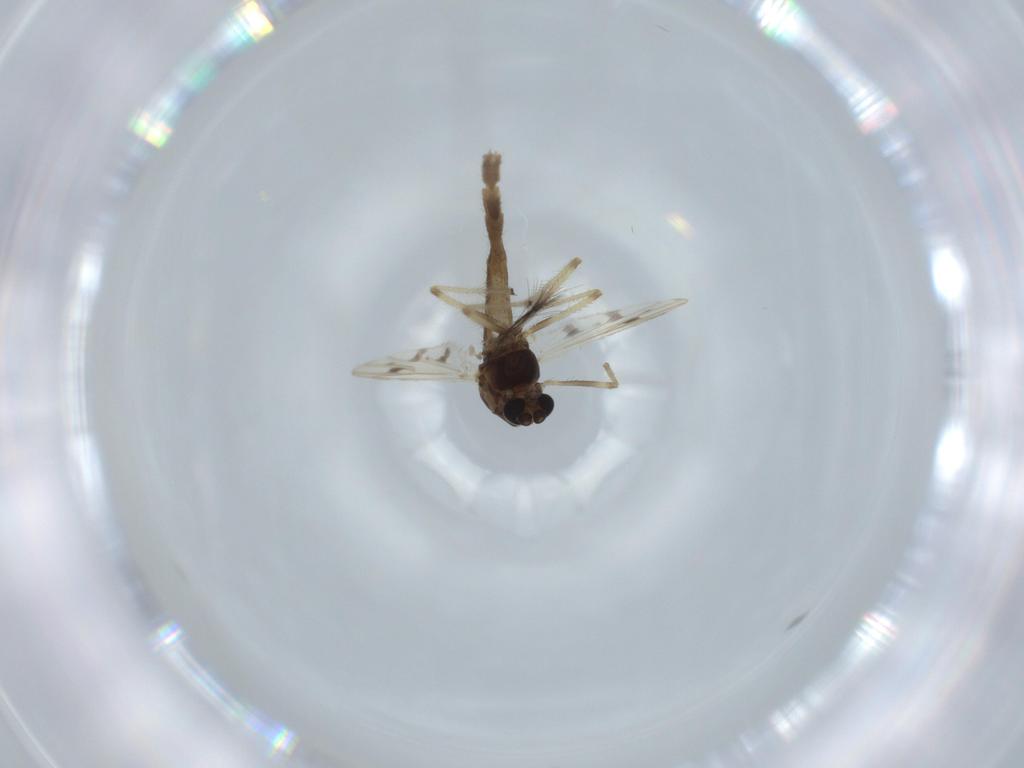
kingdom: Animalia
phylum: Arthropoda
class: Insecta
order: Diptera
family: Chironomidae
